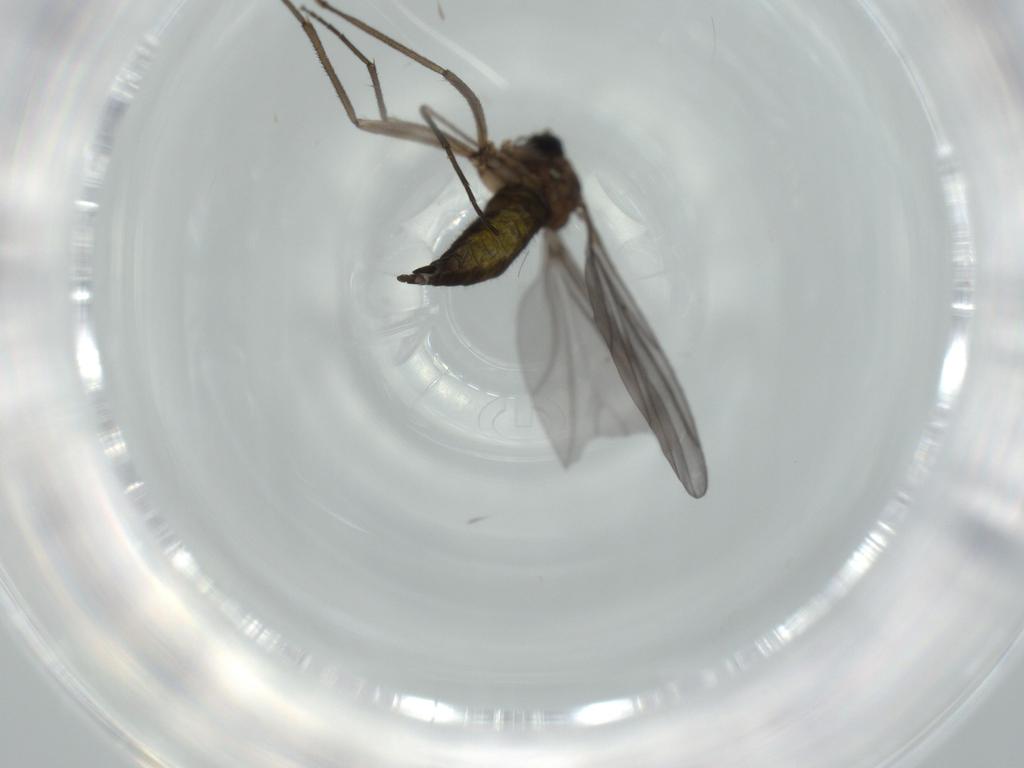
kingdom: Animalia
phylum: Arthropoda
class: Insecta
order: Diptera
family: Sciaridae
